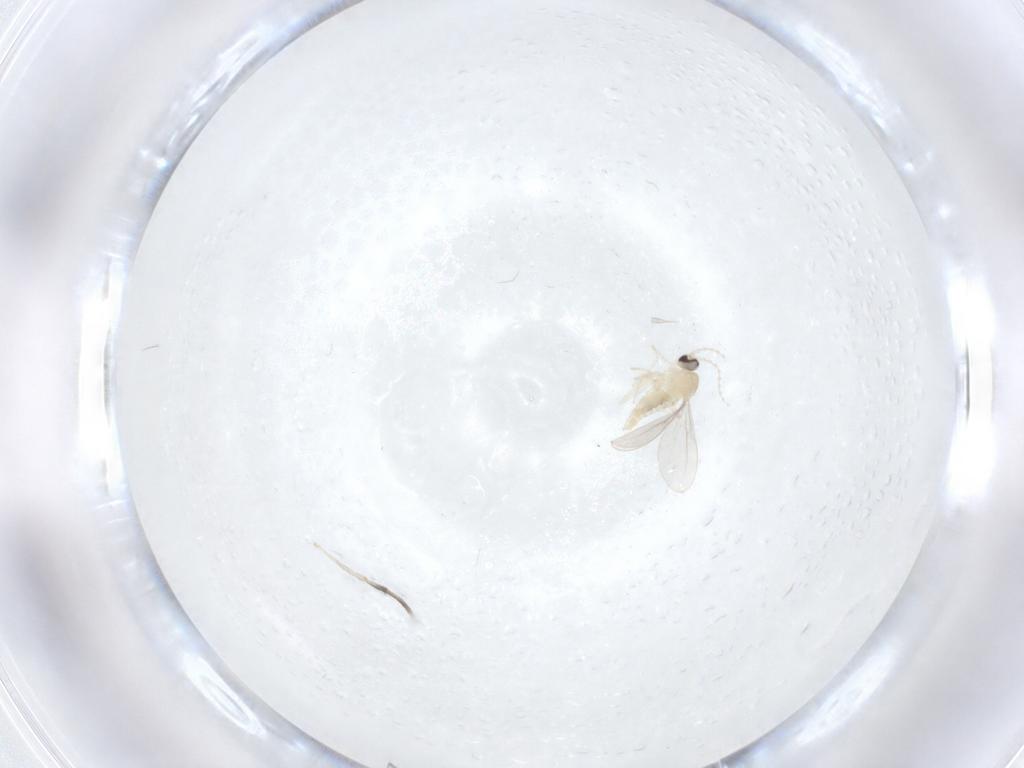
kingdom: Animalia
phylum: Arthropoda
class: Insecta
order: Diptera
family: Cecidomyiidae
